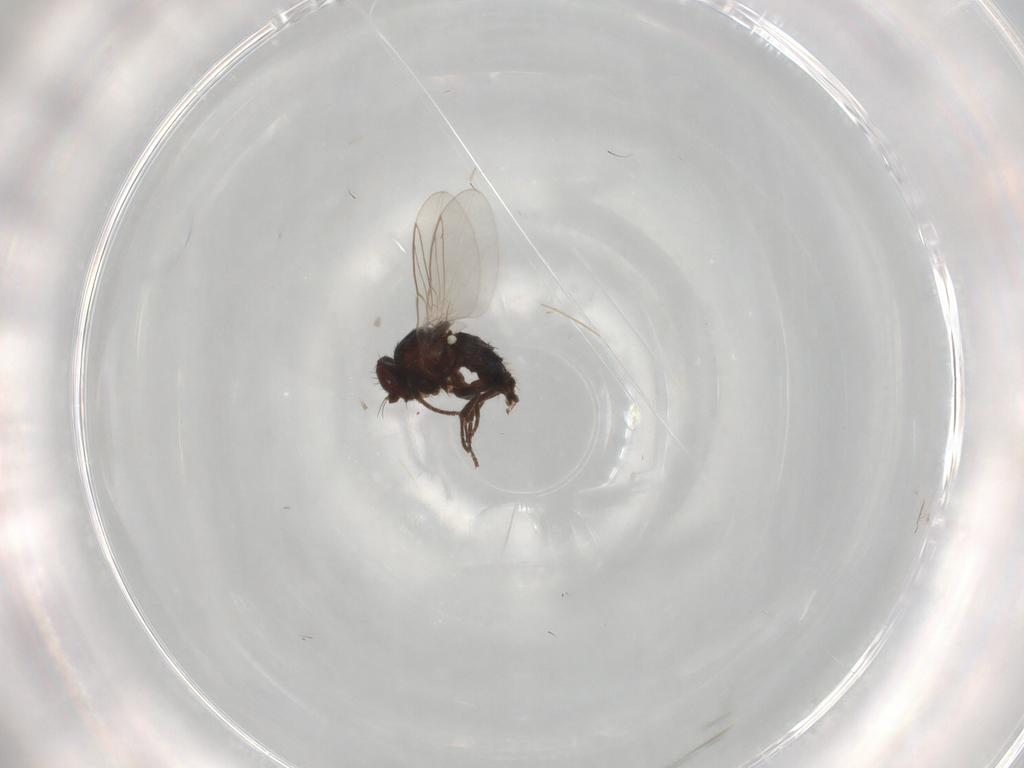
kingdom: Animalia
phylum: Arthropoda
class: Insecta
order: Diptera
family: Agromyzidae
